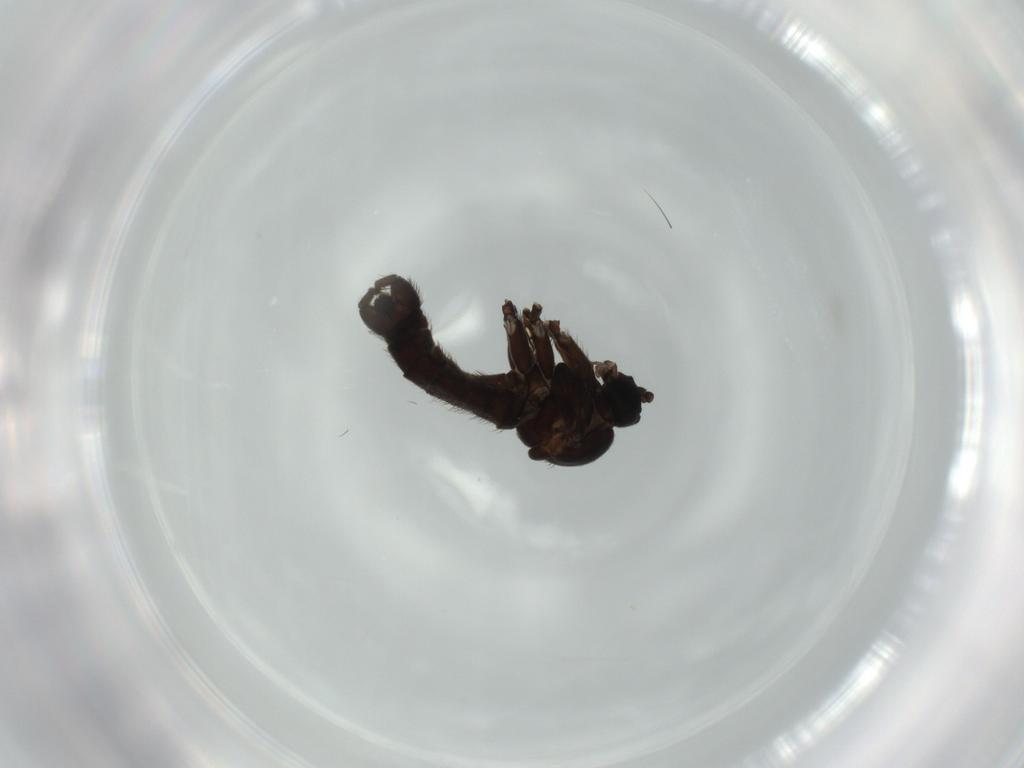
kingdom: Animalia
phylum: Arthropoda
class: Insecta
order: Diptera
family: Sciaridae
